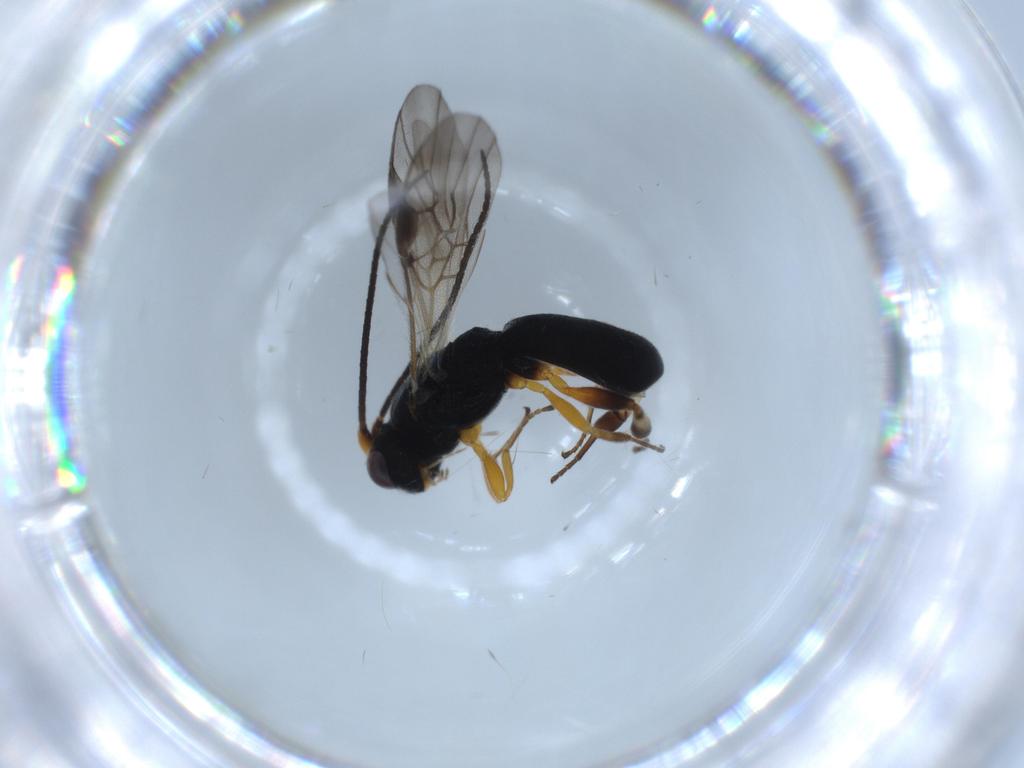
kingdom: Animalia
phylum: Arthropoda
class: Insecta
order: Hymenoptera
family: Braconidae
